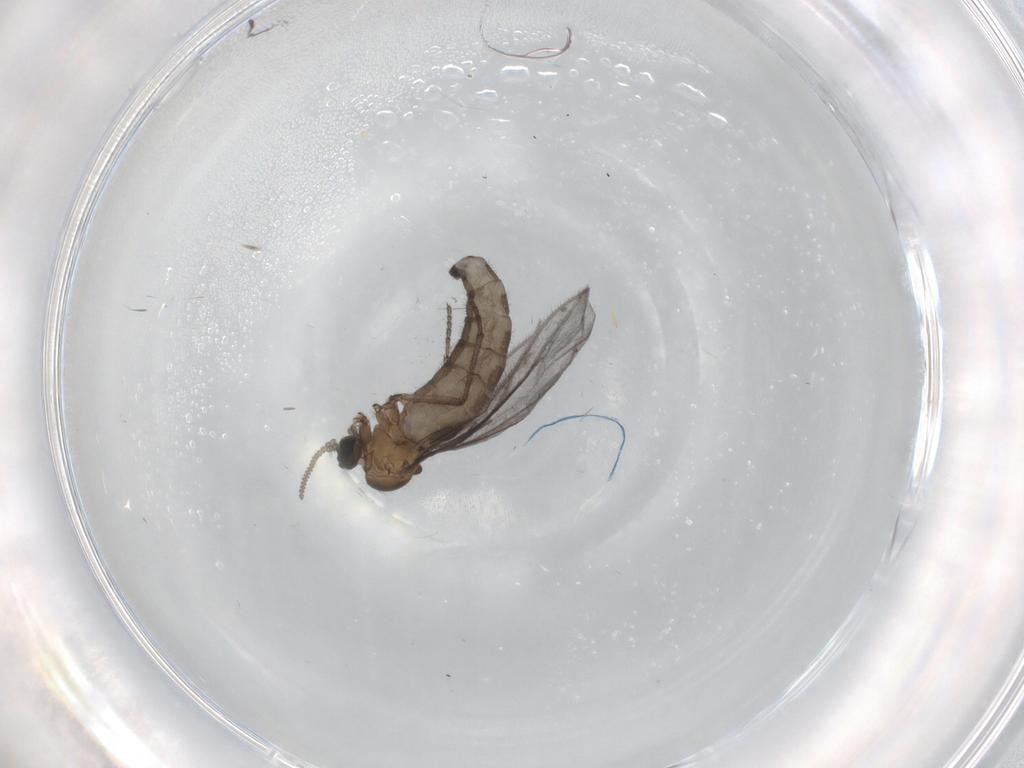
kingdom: Animalia
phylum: Arthropoda
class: Insecta
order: Diptera
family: Sciaridae
